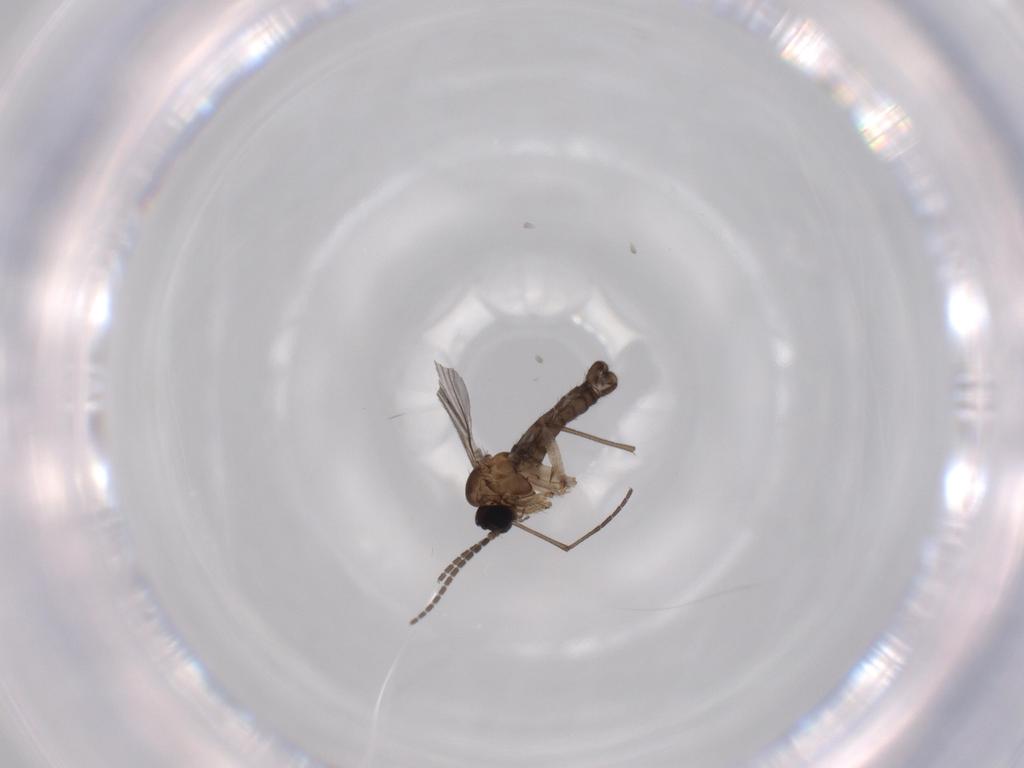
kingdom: Animalia
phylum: Arthropoda
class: Insecta
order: Diptera
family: Sciaridae
